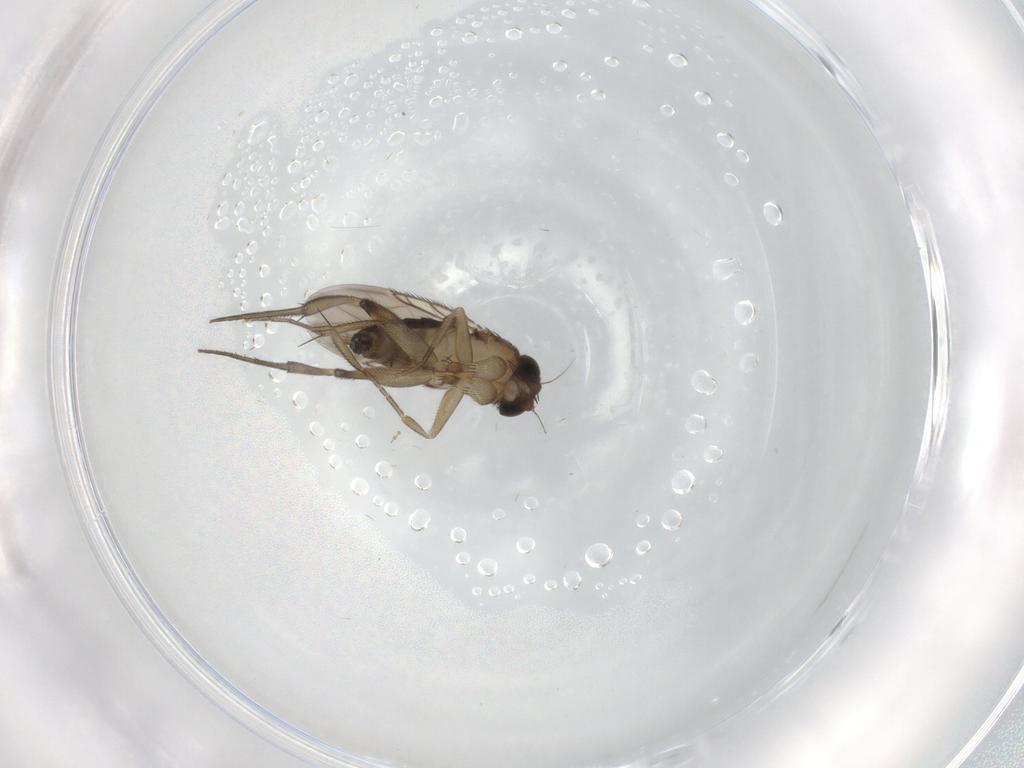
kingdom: Animalia
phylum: Arthropoda
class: Insecta
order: Diptera
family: Phoridae
